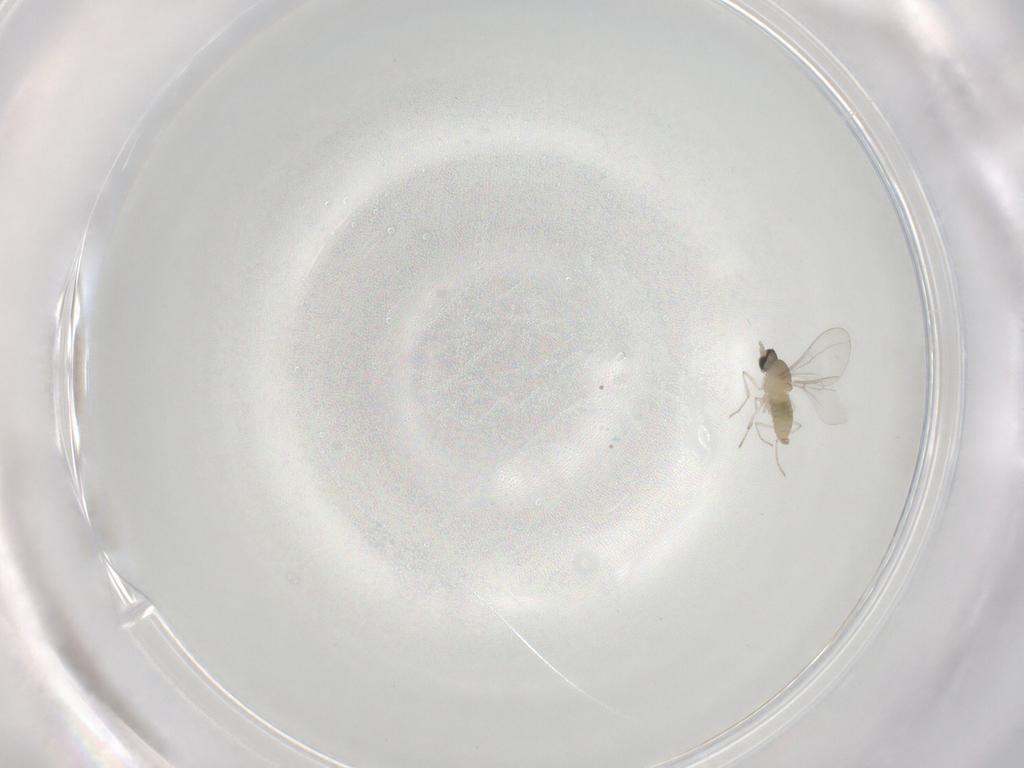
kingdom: Animalia
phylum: Arthropoda
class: Insecta
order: Diptera
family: Cecidomyiidae
